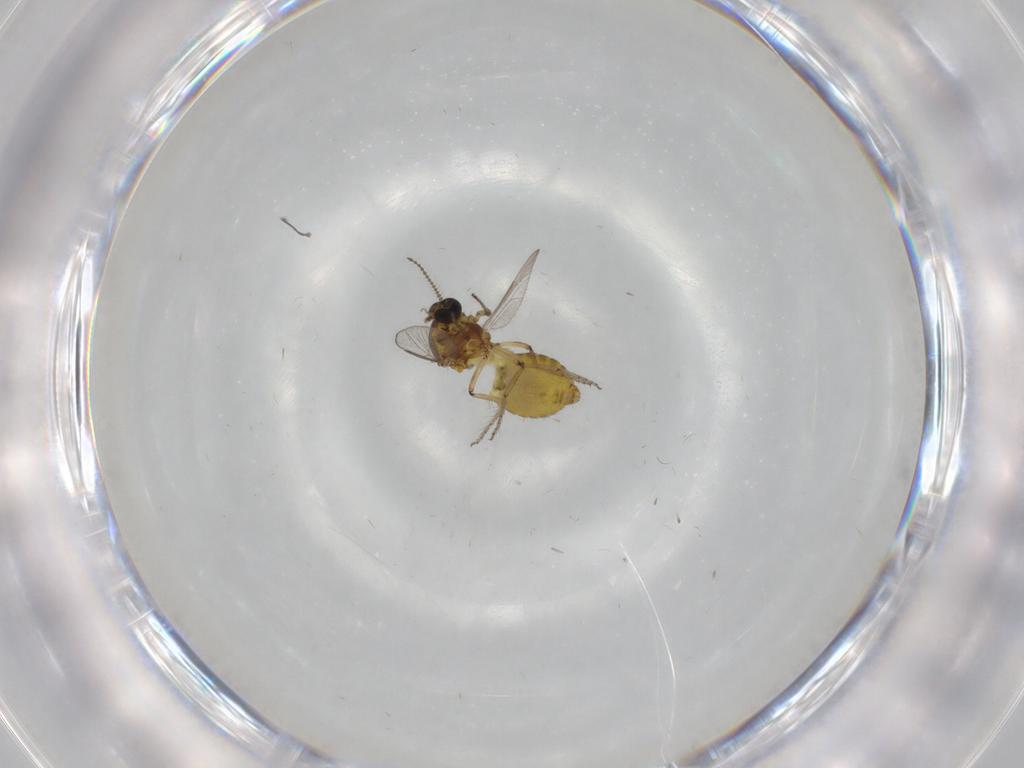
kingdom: Animalia
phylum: Arthropoda
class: Insecta
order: Diptera
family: Ceratopogonidae
